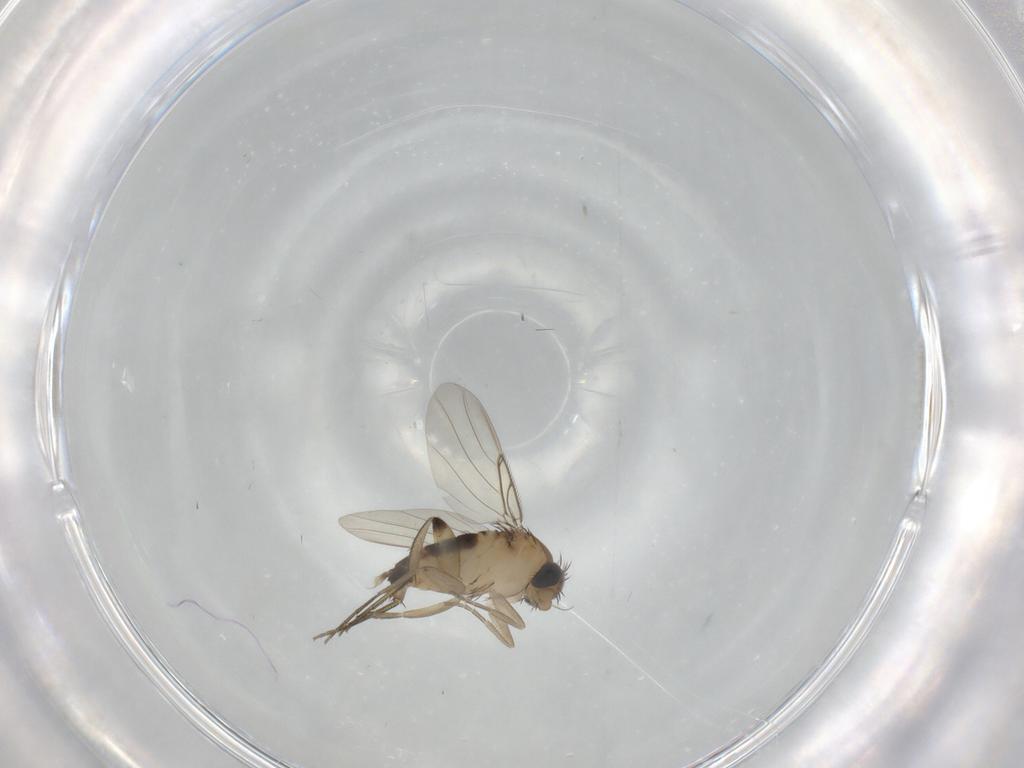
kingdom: Animalia
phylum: Arthropoda
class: Insecta
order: Diptera
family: Phoridae
